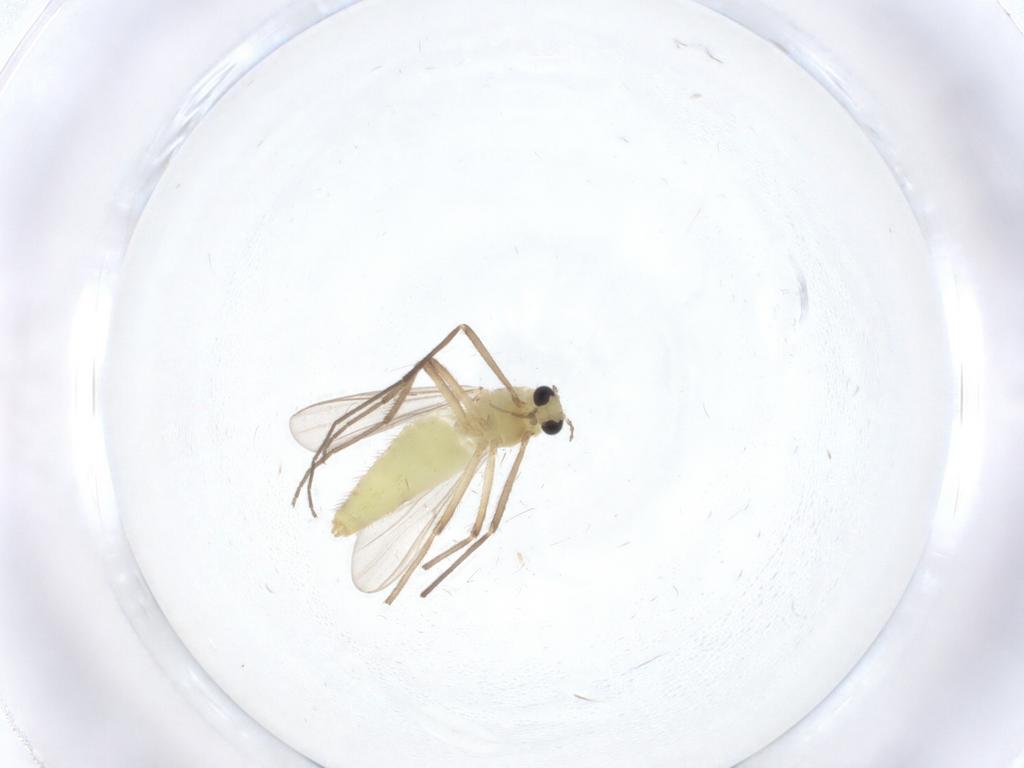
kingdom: Animalia
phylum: Arthropoda
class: Insecta
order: Diptera
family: Chironomidae
